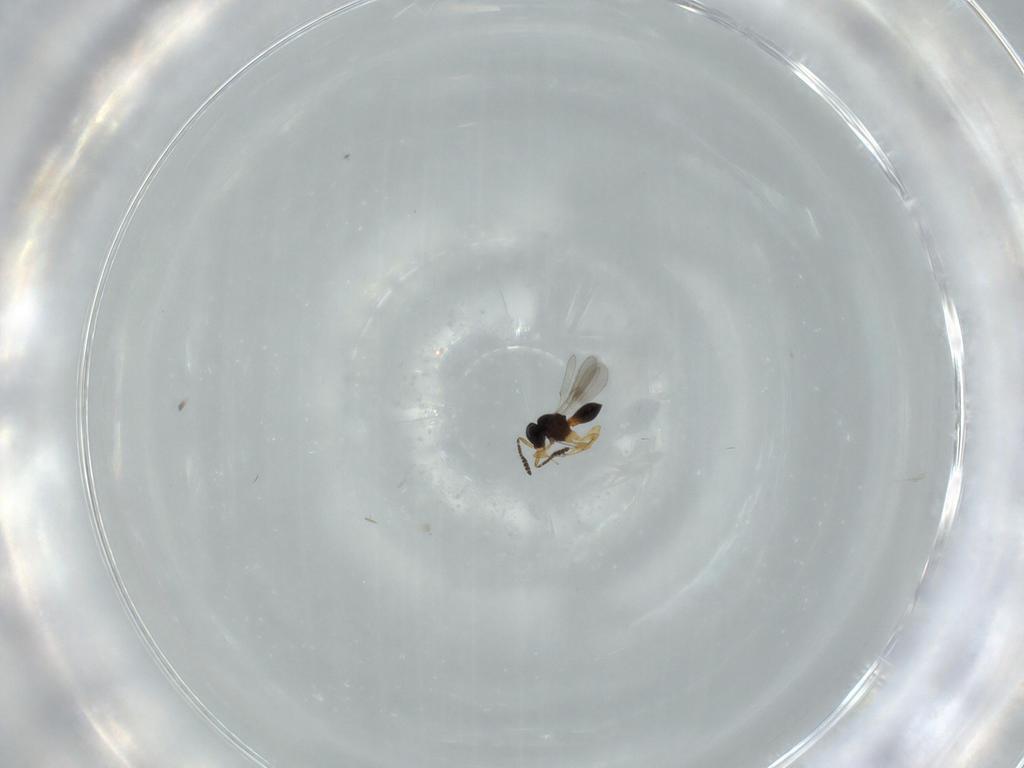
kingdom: Animalia
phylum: Arthropoda
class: Insecta
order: Hymenoptera
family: Scelionidae
